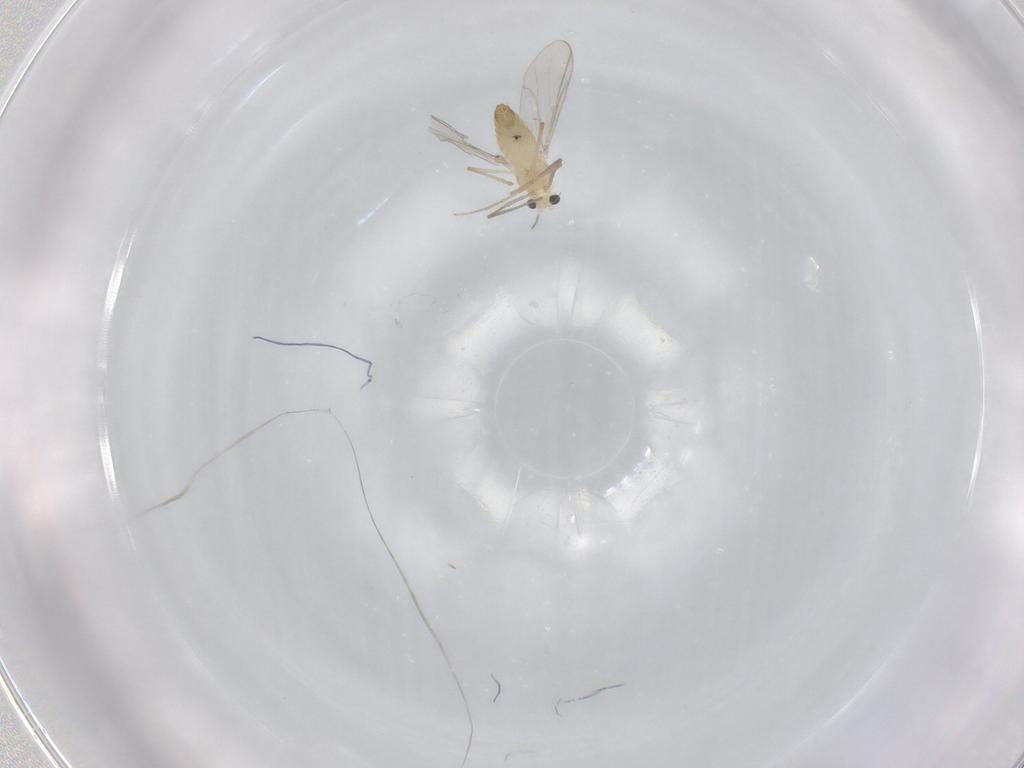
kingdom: Animalia
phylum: Arthropoda
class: Insecta
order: Diptera
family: Chironomidae
